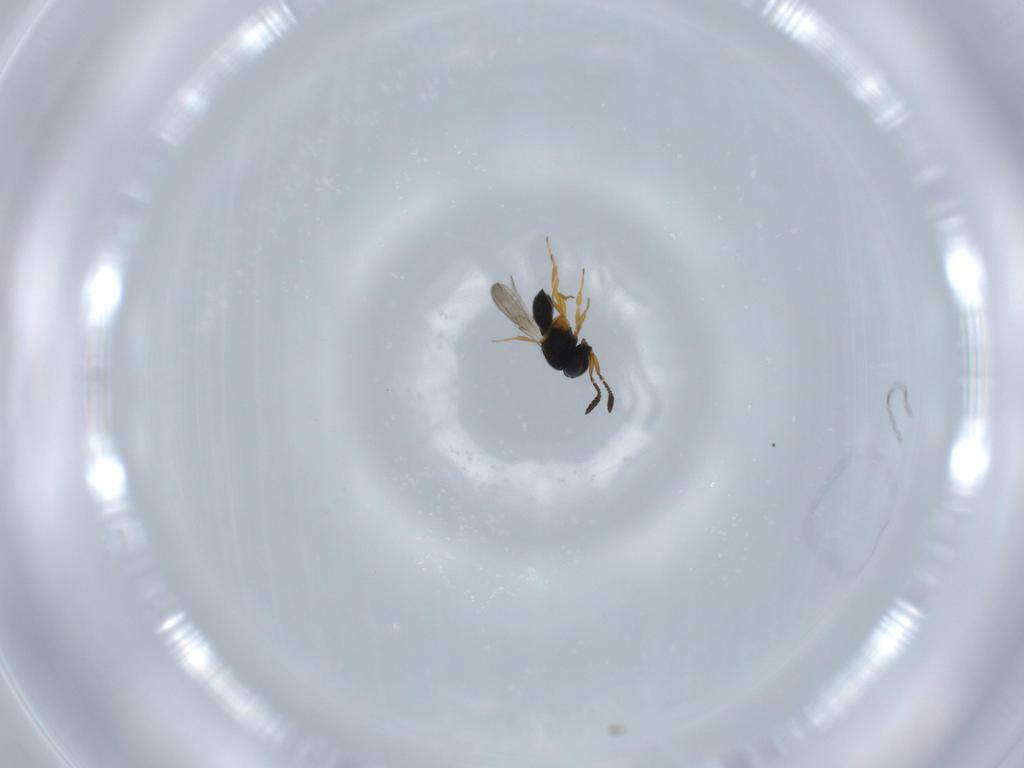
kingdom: Animalia
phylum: Arthropoda
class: Insecta
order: Hymenoptera
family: Scelionidae
